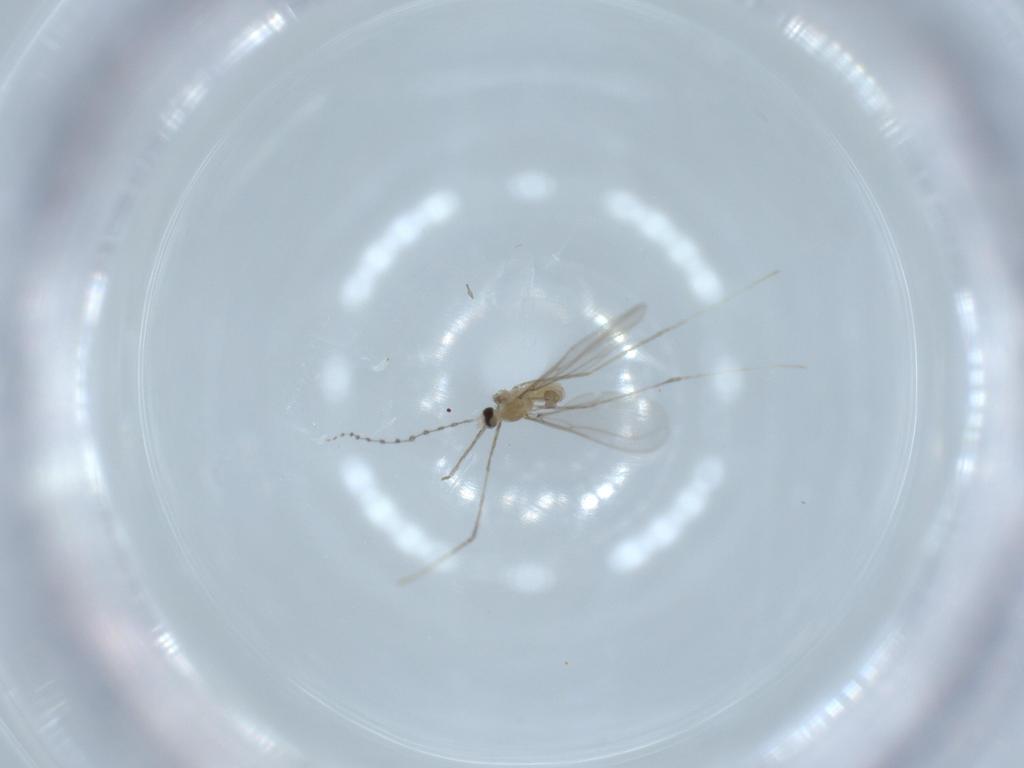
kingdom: Animalia
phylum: Arthropoda
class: Insecta
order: Diptera
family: Cecidomyiidae
